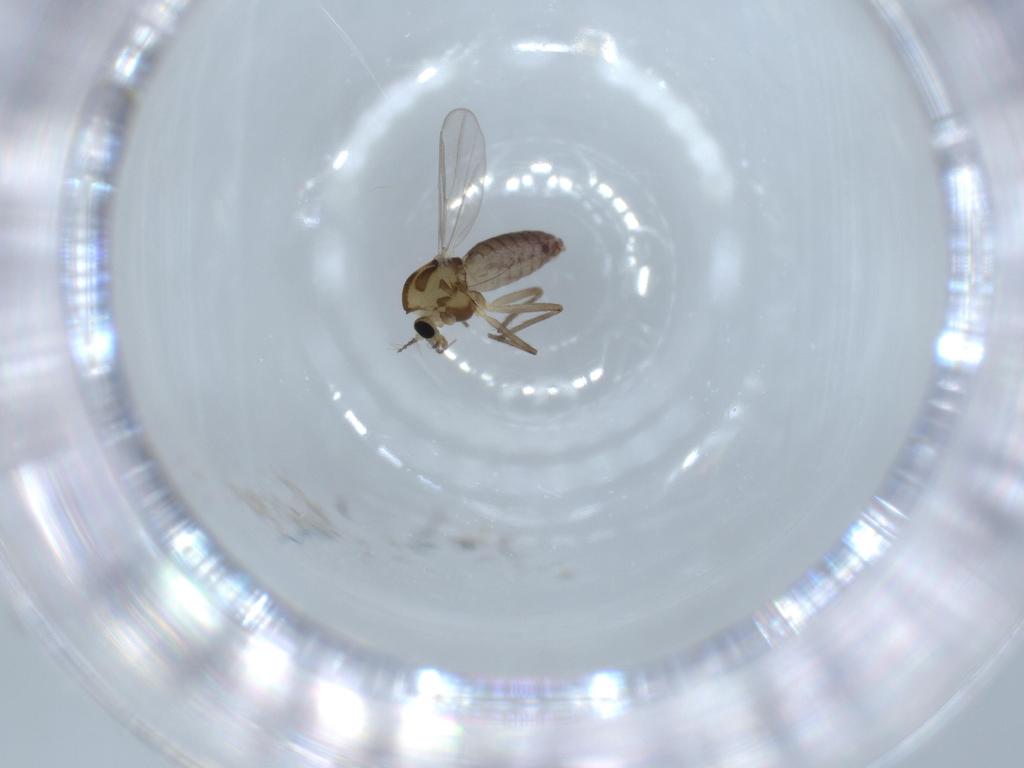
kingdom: Animalia
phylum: Arthropoda
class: Insecta
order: Diptera
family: Chironomidae
